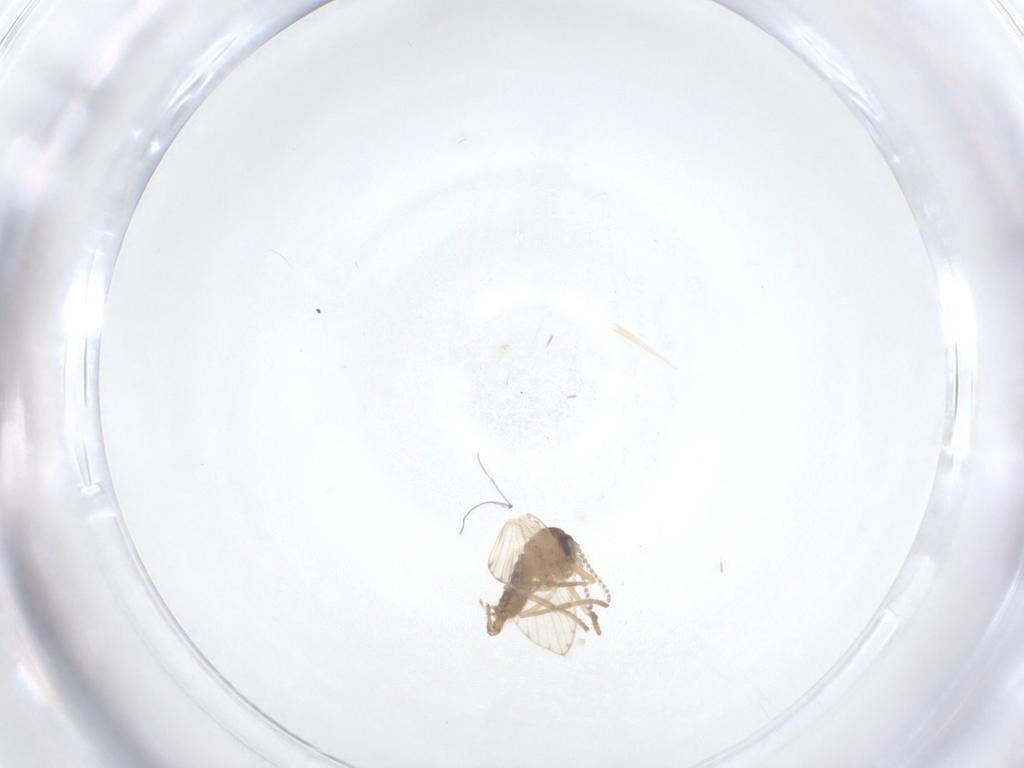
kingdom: Animalia
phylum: Arthropoda
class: Insecta
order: Diptera
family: Psychodidae
